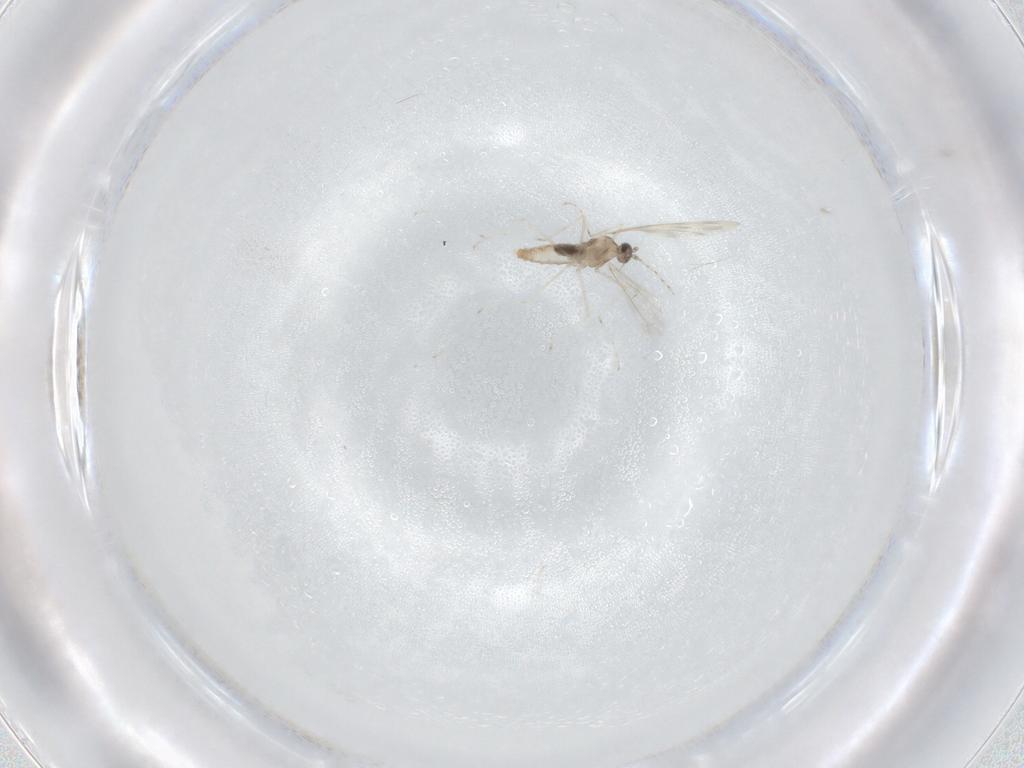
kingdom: Animalia
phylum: Arthropoda
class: Insecta
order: Diptera
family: Cecidomyiidae
